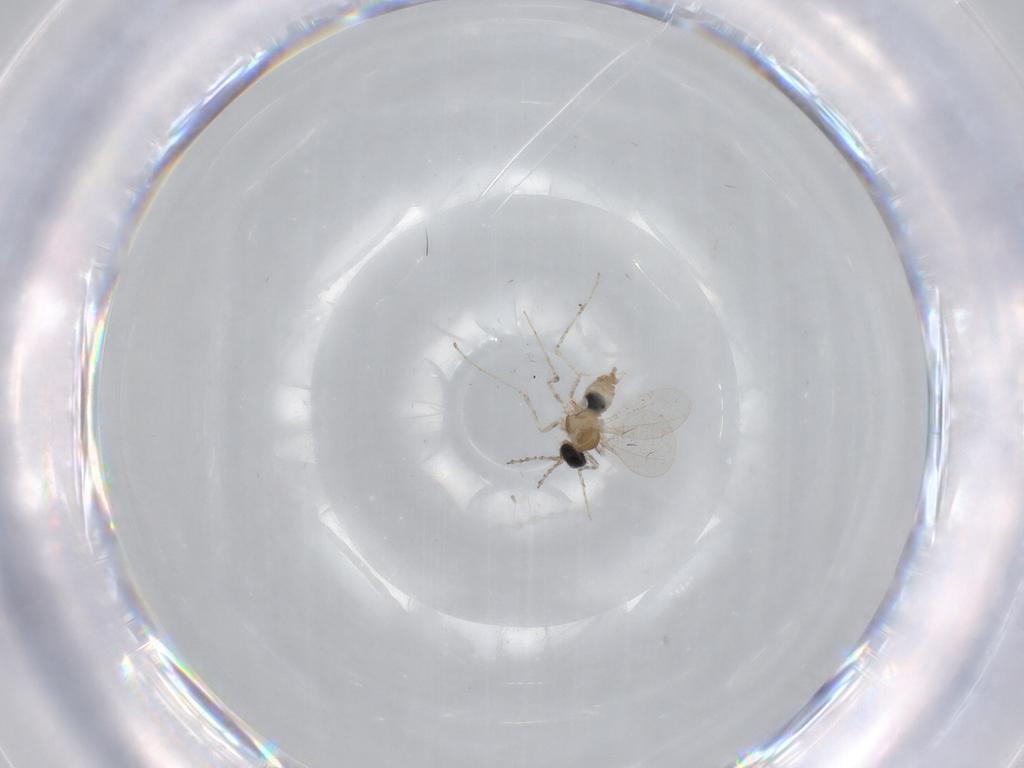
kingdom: Animalia
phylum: Arthropoda
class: Insecta
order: Diptera
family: Cecidomyiidae
